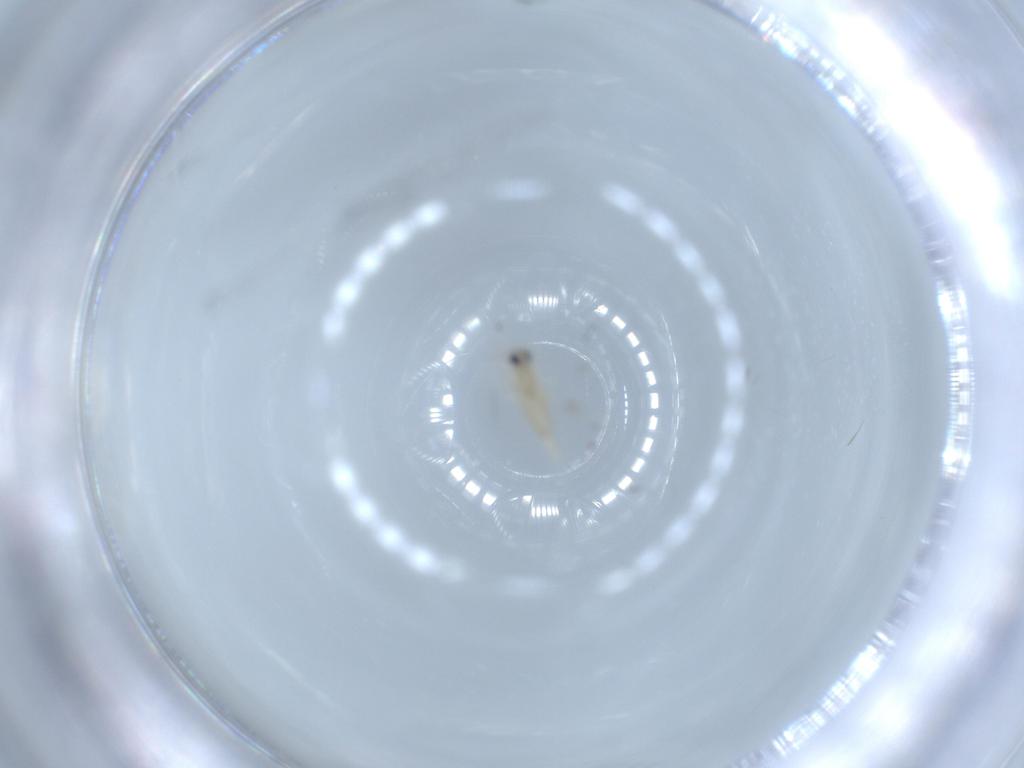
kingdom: Animalia
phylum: Arthropoda
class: Insecta
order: Diptera
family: Cecidomyiidae
